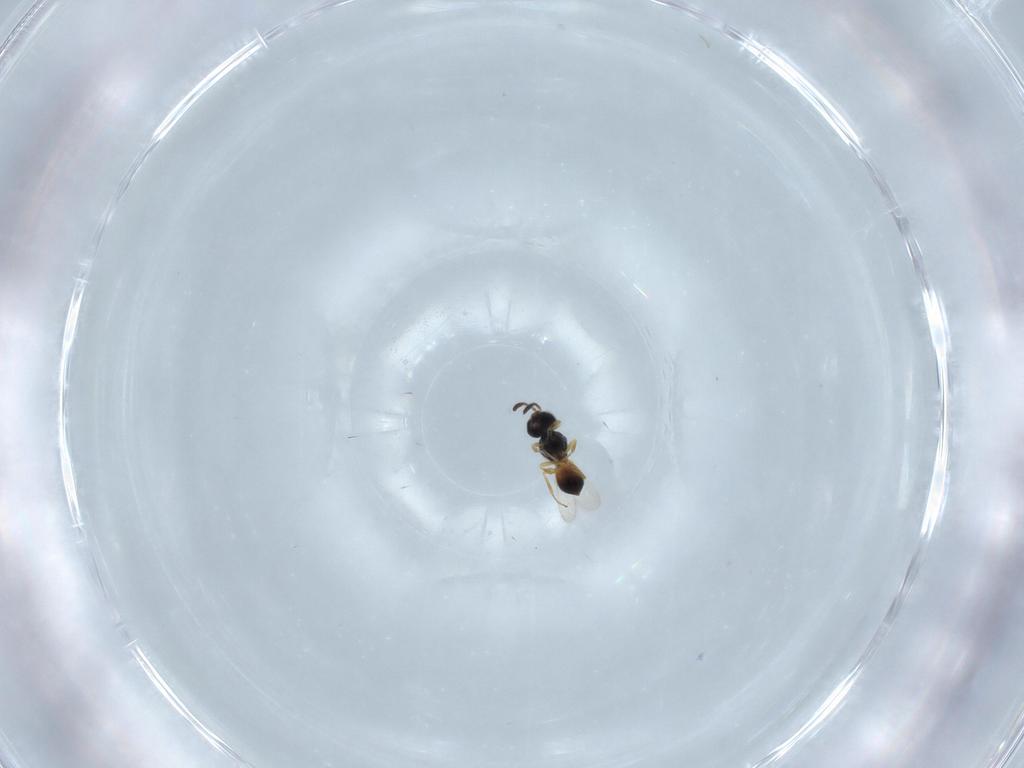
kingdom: Animalia
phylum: Arthropoda
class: Insecta
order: Hymenoptera
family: Scelionidae
